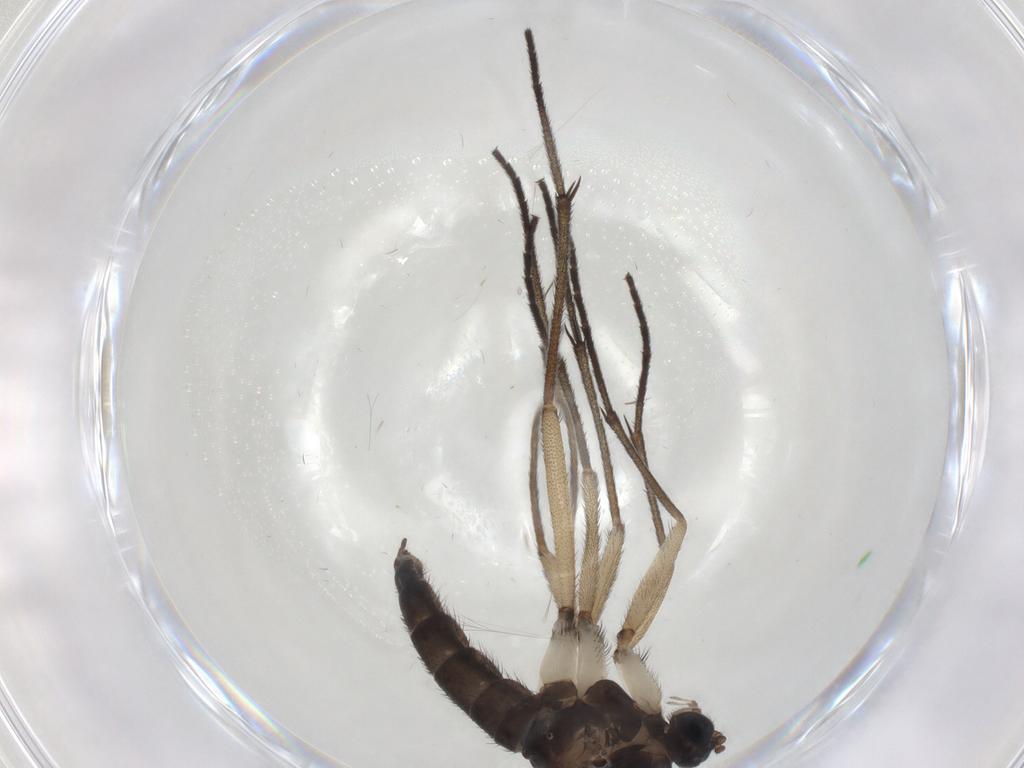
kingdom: Animalia
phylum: Arthropoda
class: Insecta
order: Diptera
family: Sciaridae
